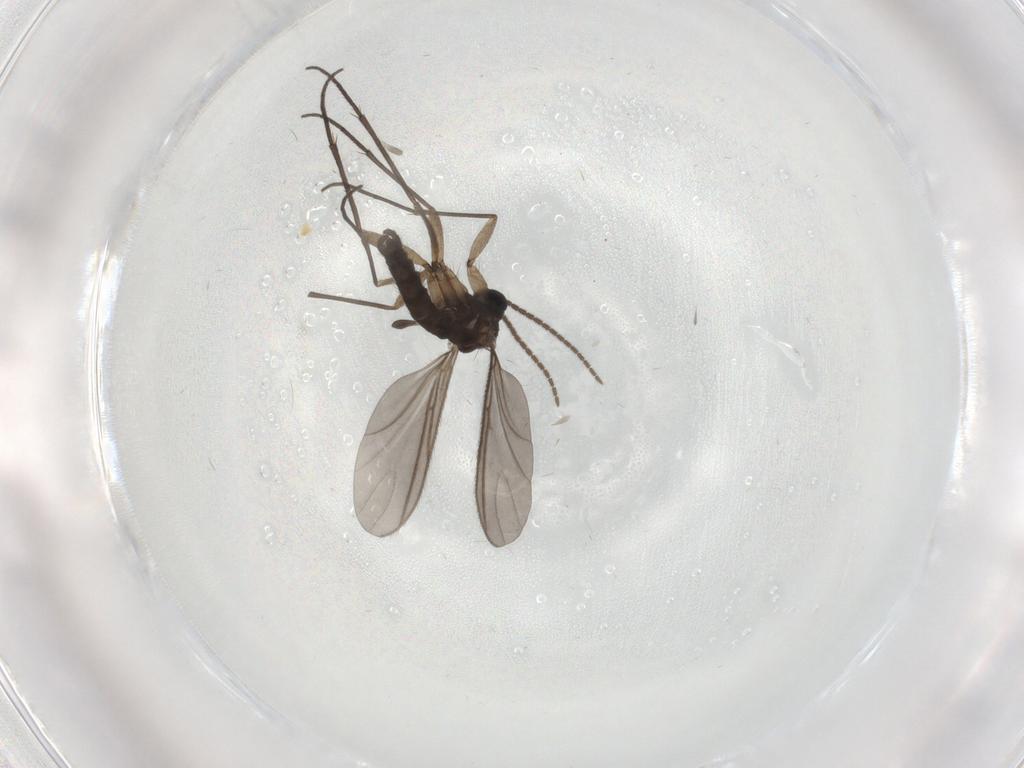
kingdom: Animalia
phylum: Arthropoda
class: Insecta
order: Diptera
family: Sciaridae
